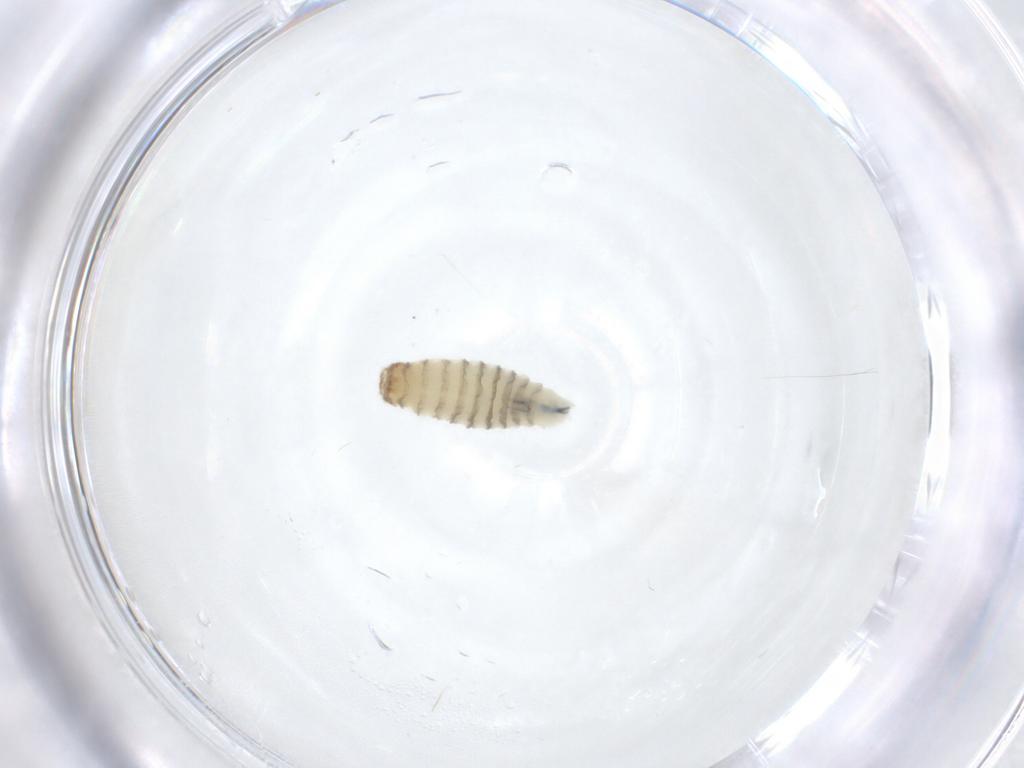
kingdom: Animalia
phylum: Arthropoda
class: Insecta
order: Diptera
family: Sarcophagidae
